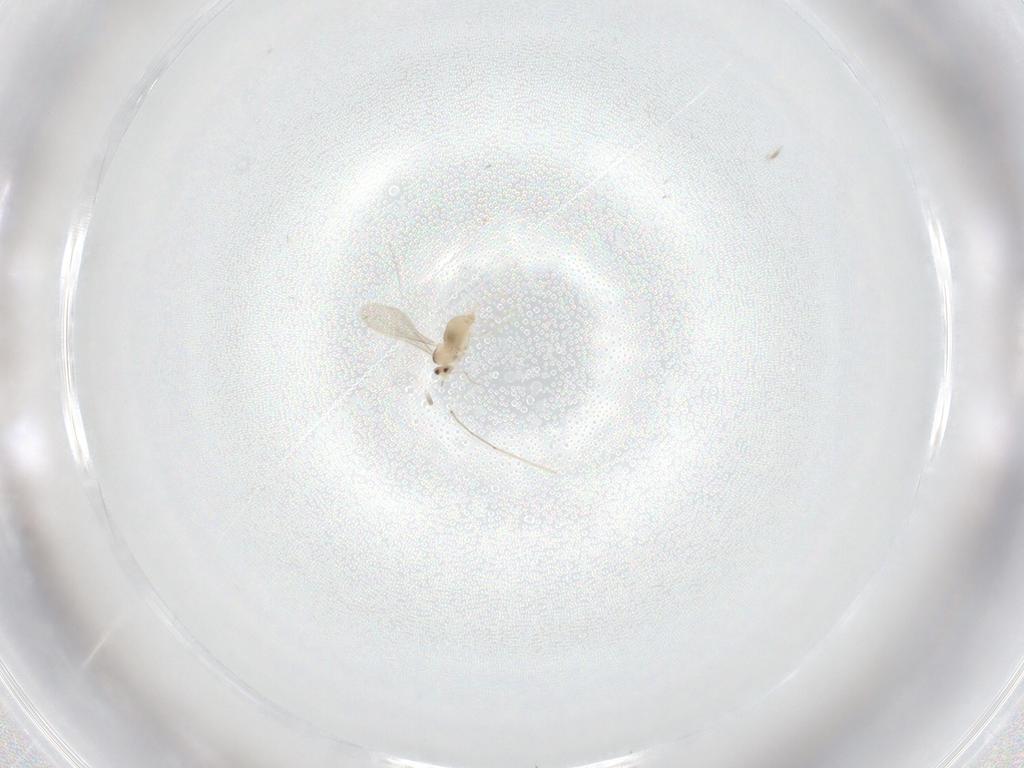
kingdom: Animalia
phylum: Arthropoda
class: Insecta
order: Diptera
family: Cecidomyiidae
